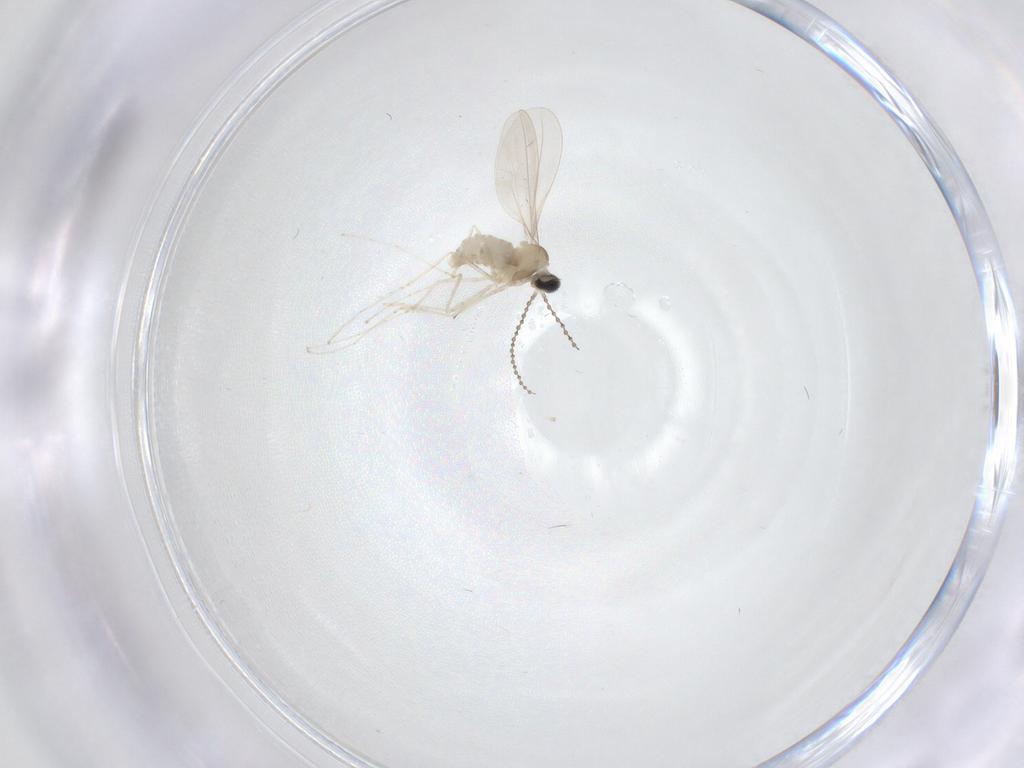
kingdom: Animalia
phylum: Arthropoda
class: Insecta
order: Diptera
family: Cecidomyiidae
